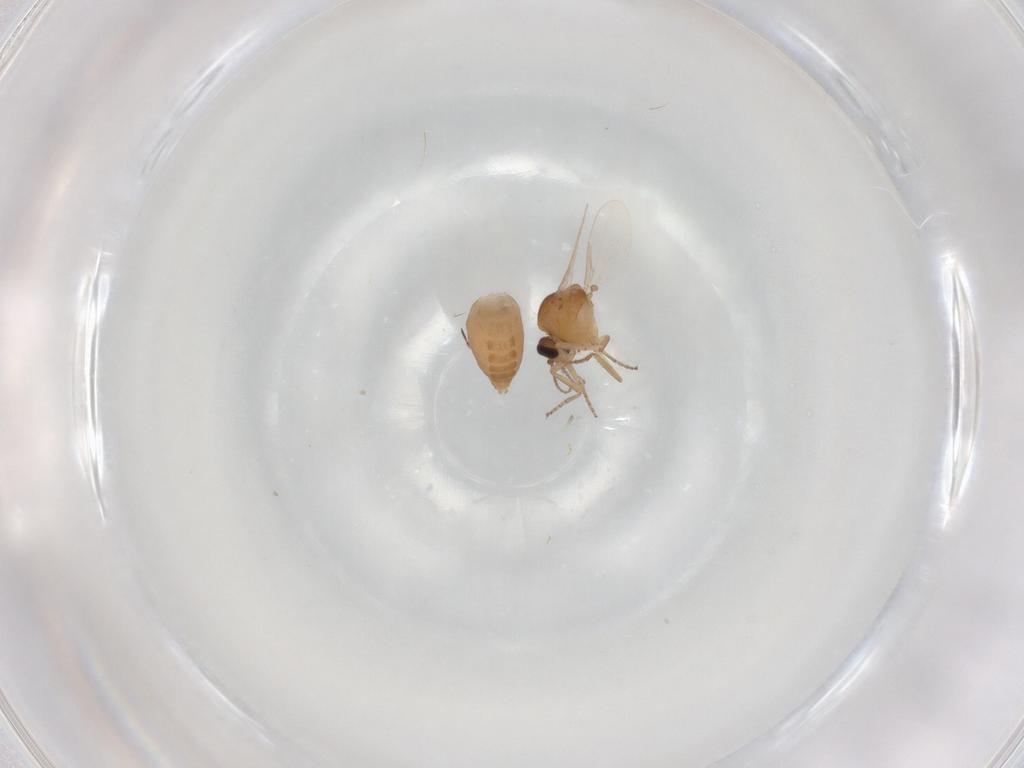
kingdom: Animalia
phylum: Arthropoda
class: Insecta
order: Diptera
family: Ceratopogonidae
